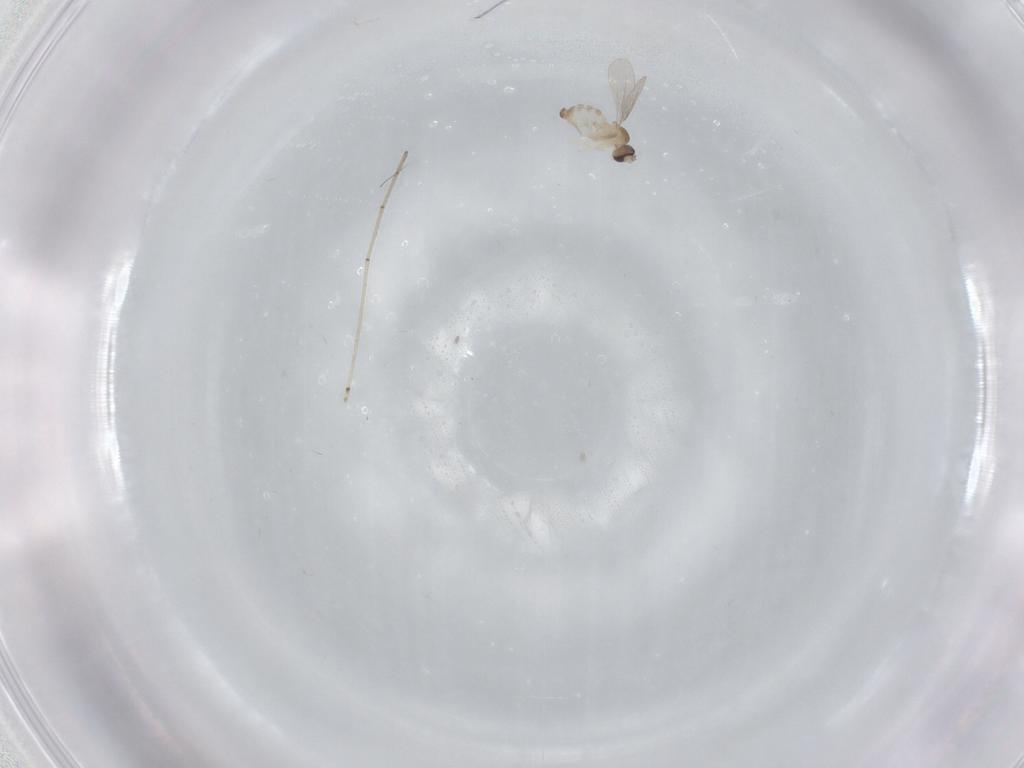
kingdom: Animalia
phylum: Arthropoda
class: Insecta
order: Diptera
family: Cecidomyiidae
